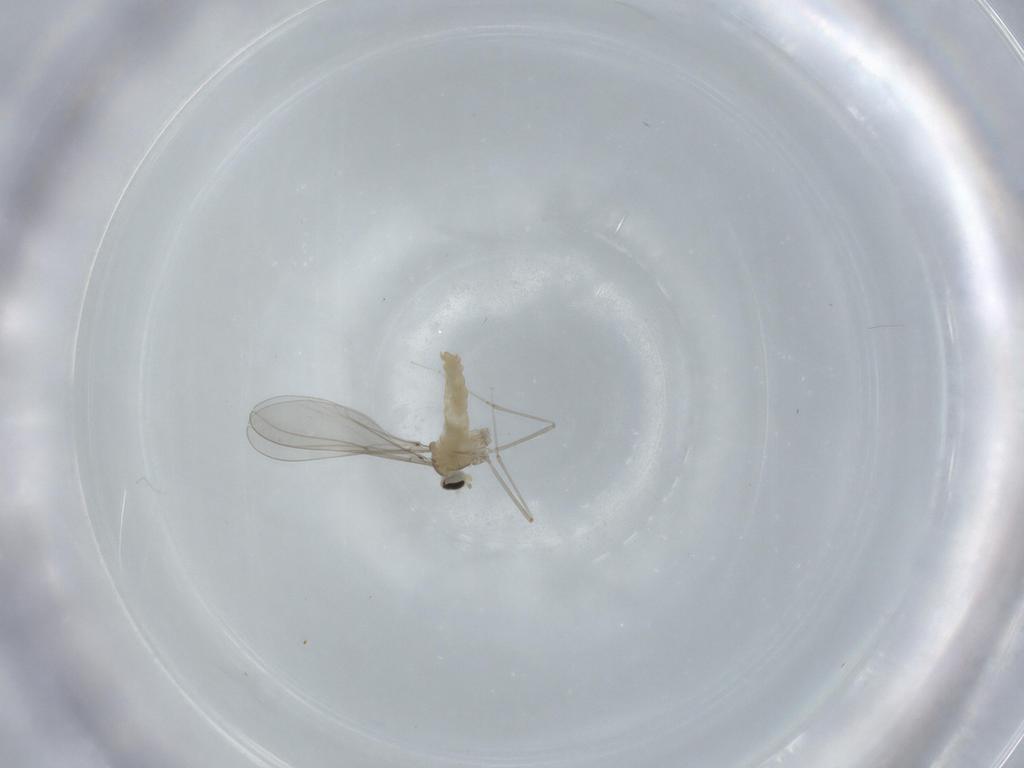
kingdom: Animalia
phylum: Arthropoda
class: Insecta
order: Diptera
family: Cecidomyiidae
